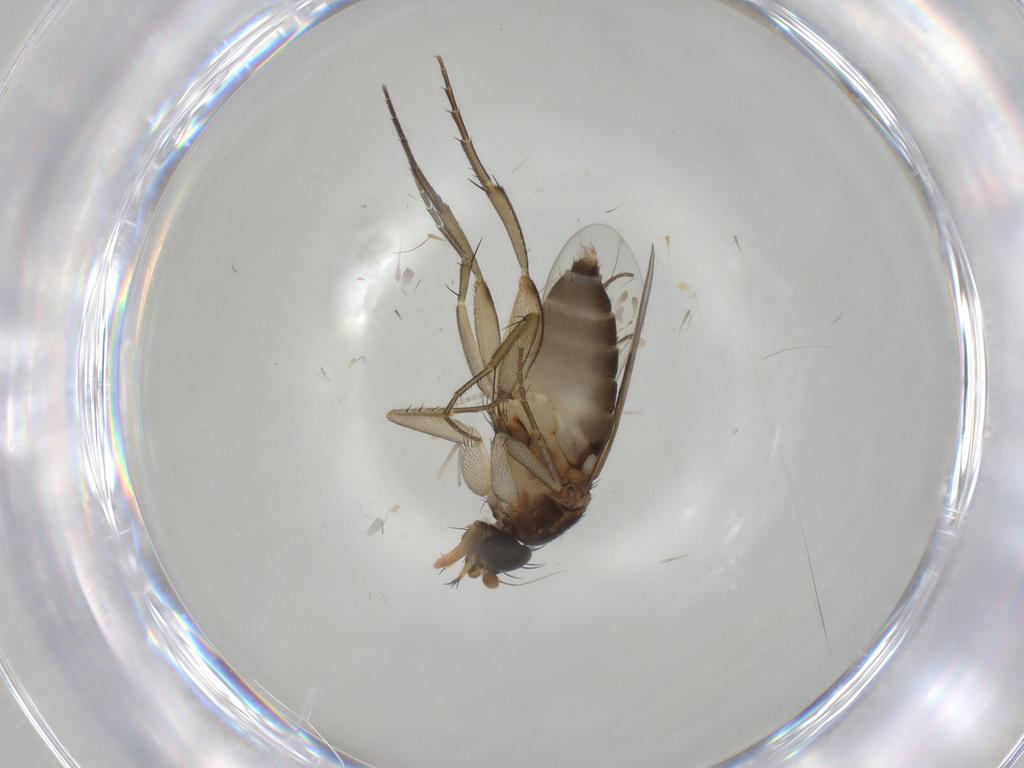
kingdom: Animalia
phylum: Arthropoda
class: Insecta
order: Diptera
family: Phoridae
